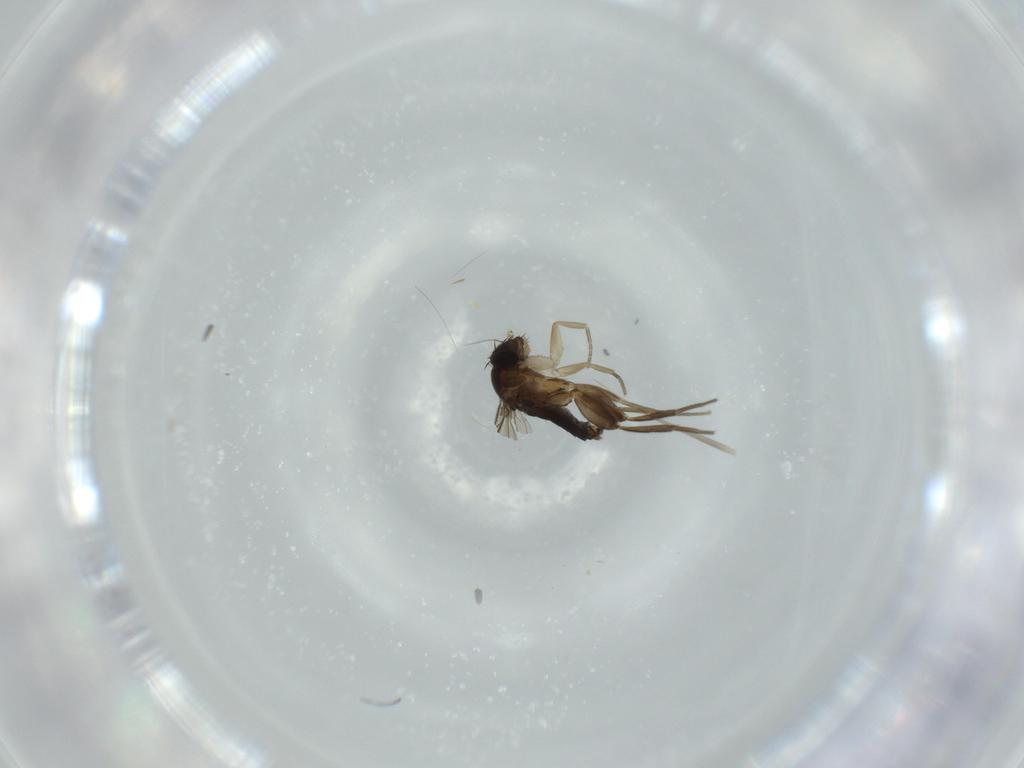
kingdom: Animalia
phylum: Arthropoda
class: Insecta
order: Diptera
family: Phoridae
